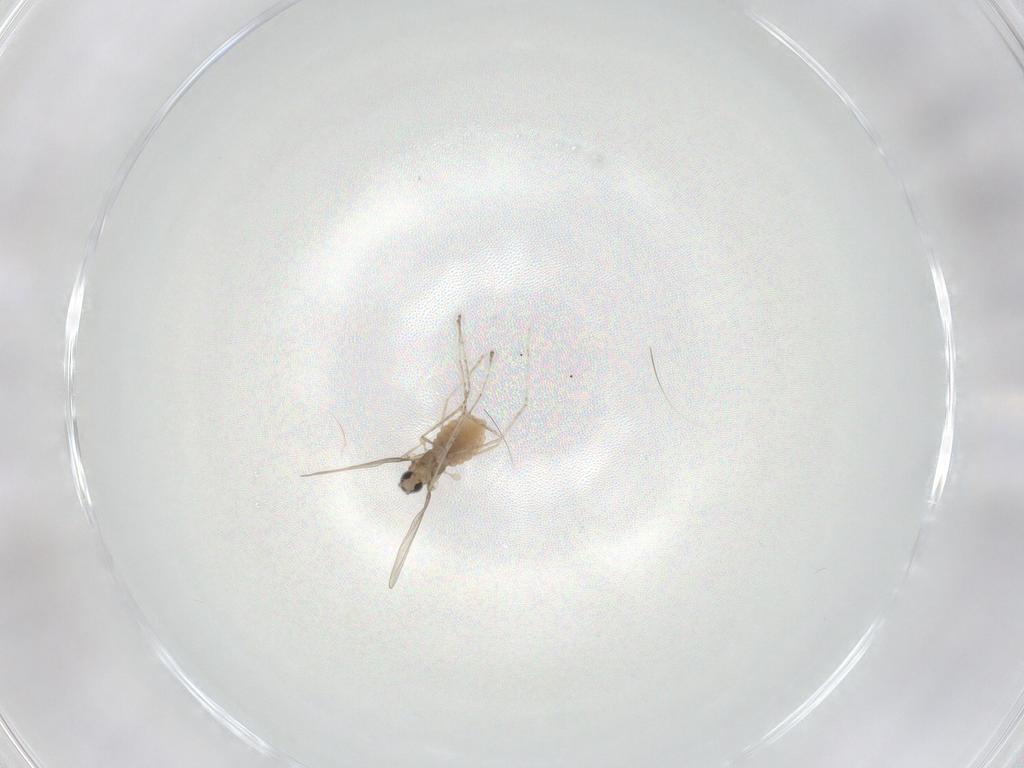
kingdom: Animalia
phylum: Arthropoda
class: Insecta
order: Diptera
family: Cecidomyiidae
